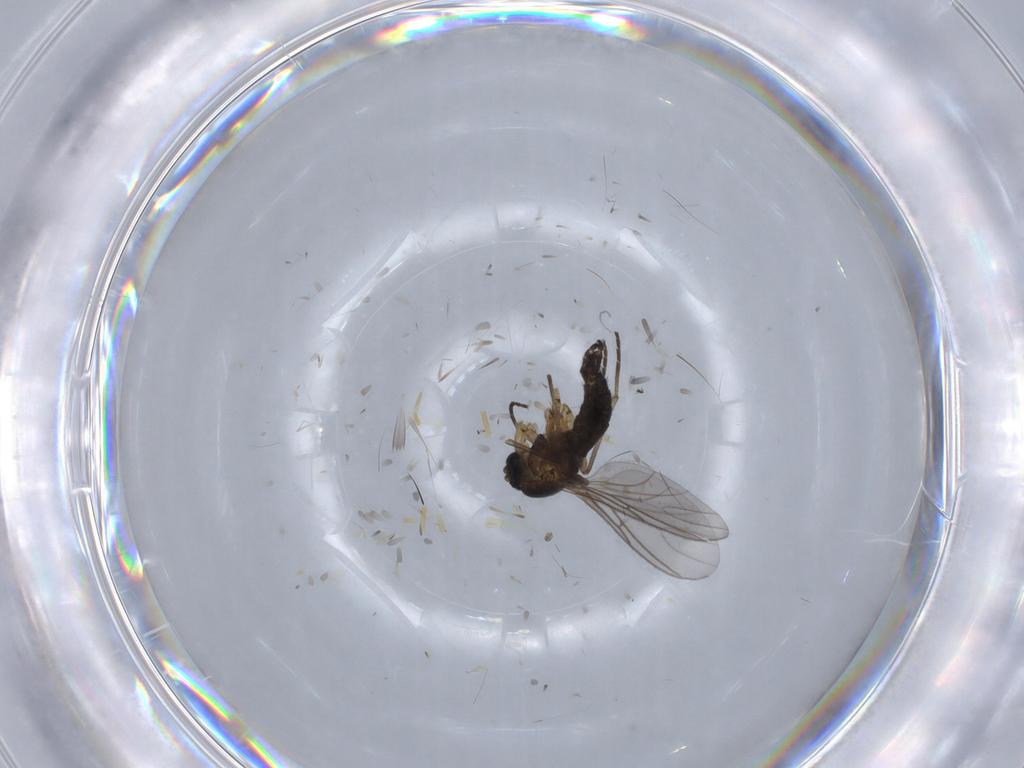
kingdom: Animalia
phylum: Arthropoda
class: Insecta
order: Diptera
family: Sciaridae
